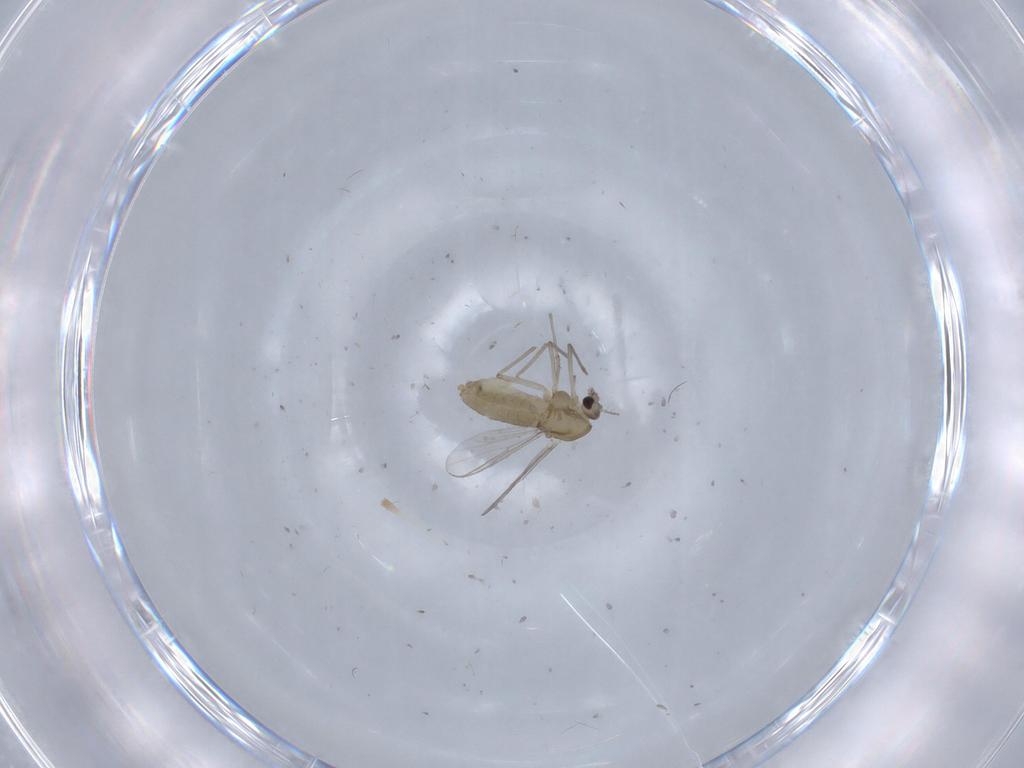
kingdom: Animalia
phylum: Arthropoda
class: Insecta
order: Diptera
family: Chironomidae
